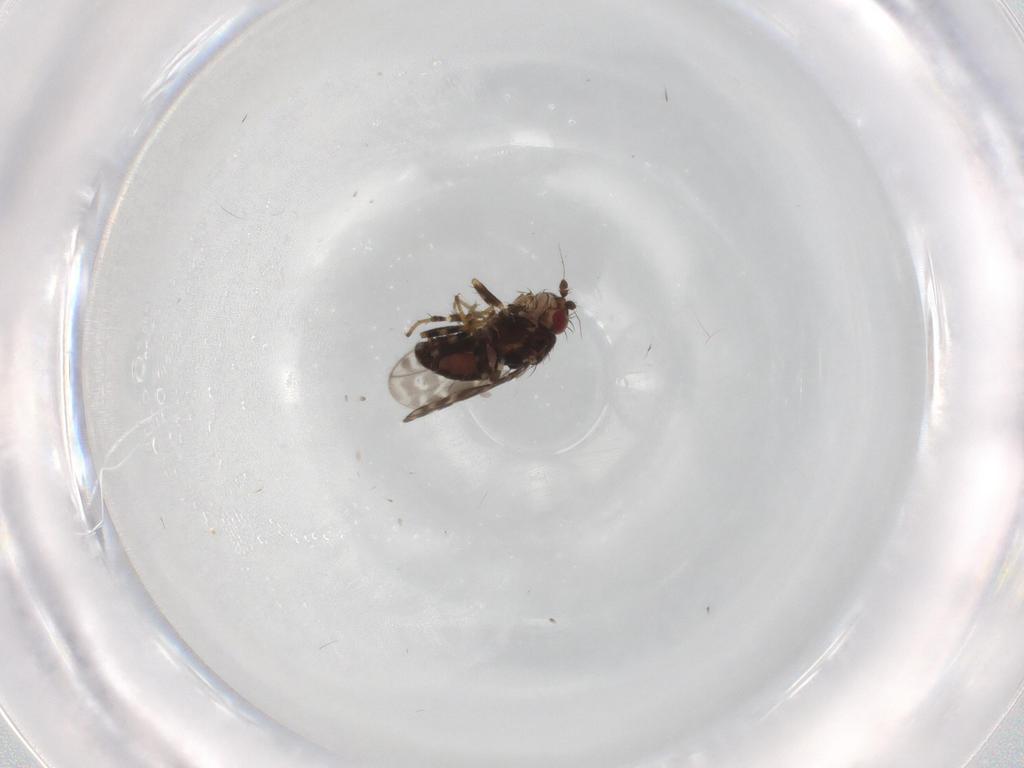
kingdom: Animalia
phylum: Arthropoda
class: Insecta
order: Diptera
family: Sphaeroceridae
